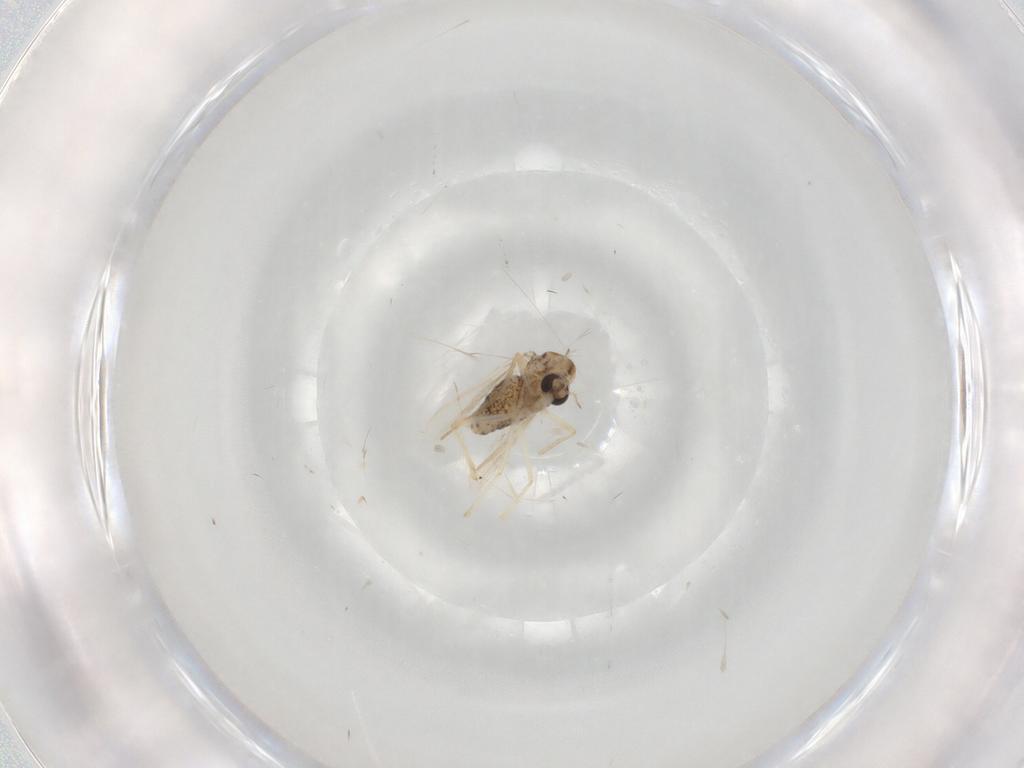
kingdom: Animalia
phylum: Arthropoda
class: Insecta
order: Diptera
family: Chironomidae
